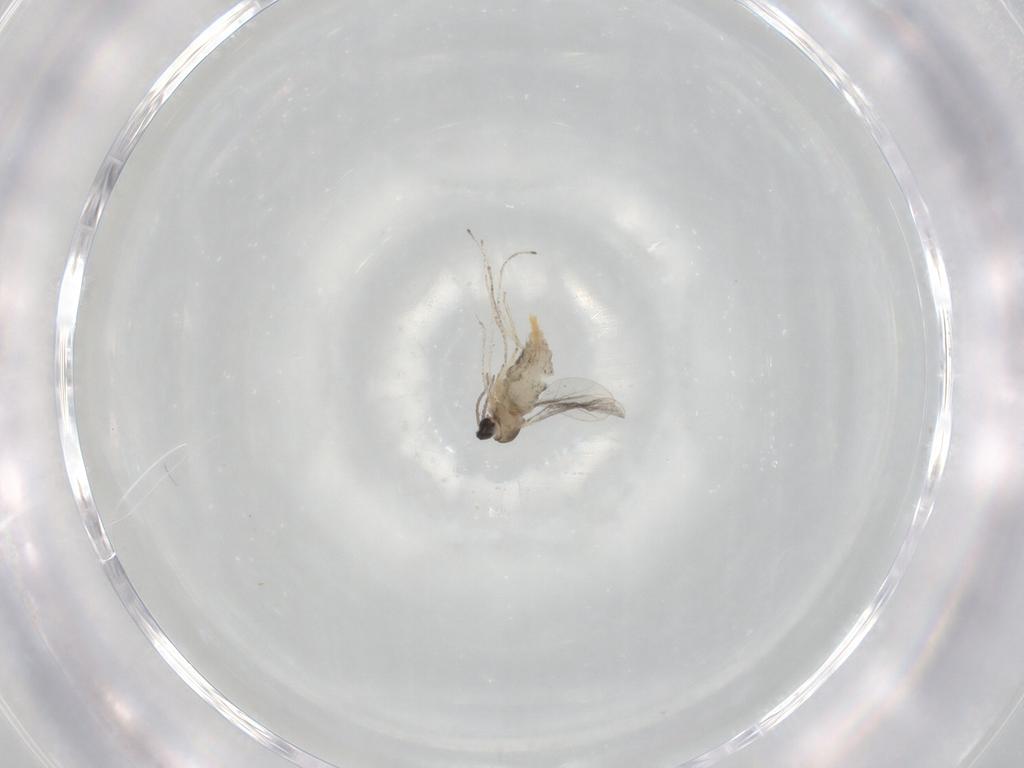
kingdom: Animalia
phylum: Arthropoda
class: Insecta
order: Diptera
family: Cecidomyiidae
